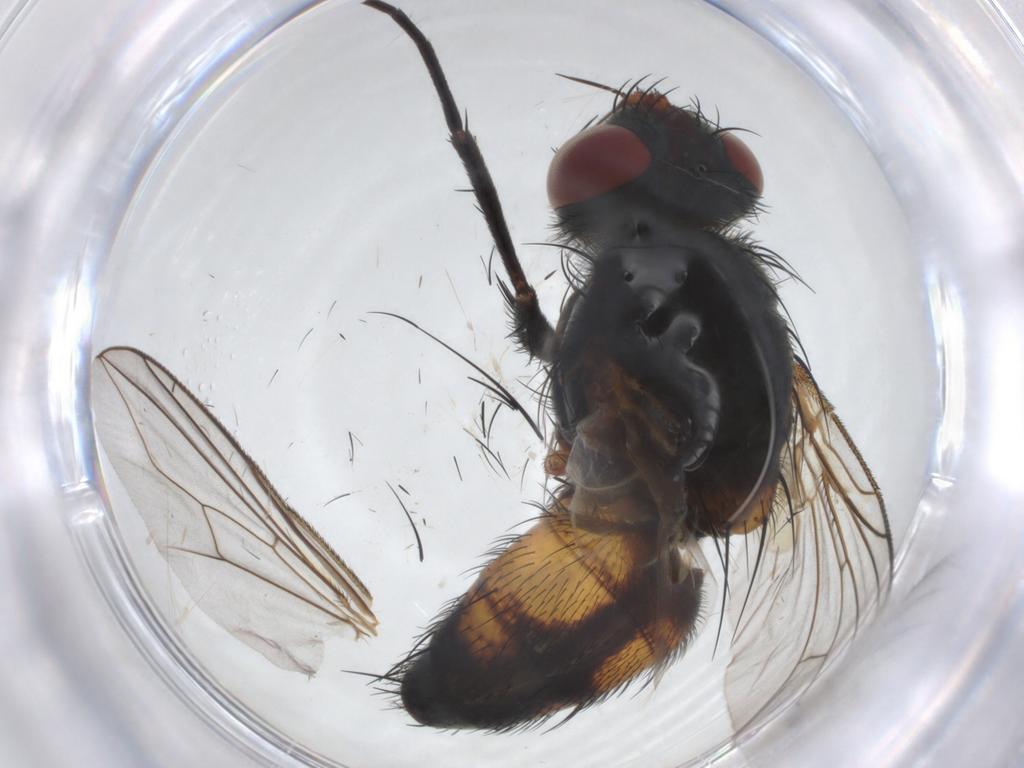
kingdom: Animalia
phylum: Arthropoda
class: Insecta
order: Diptera
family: Tachinidae
